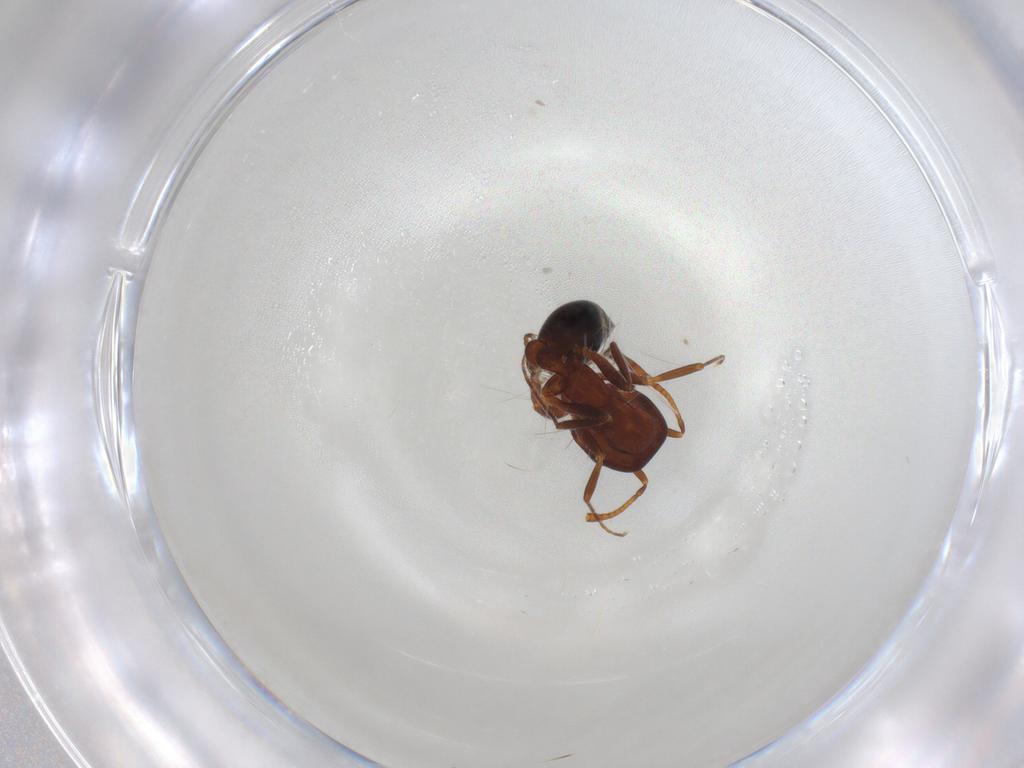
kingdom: Animalia
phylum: Arthropoda
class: Insecta
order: Hymenoptera
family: Formicidae
